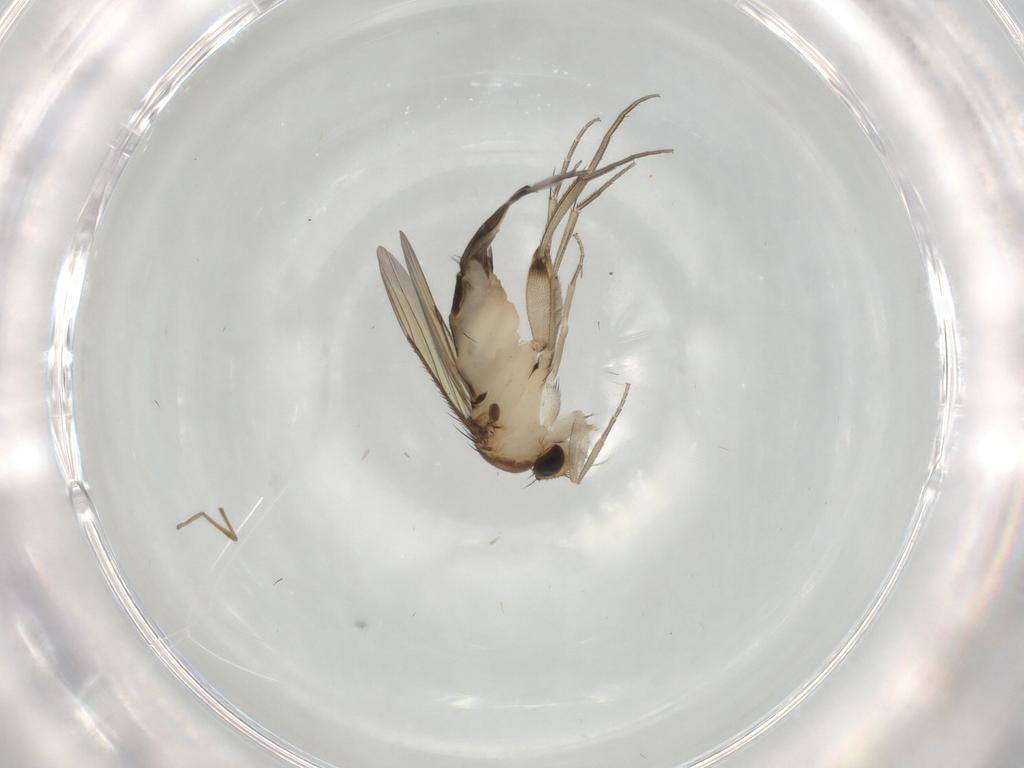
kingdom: Animalia
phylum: Arthropoda
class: Insecta
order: Diptera
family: Phoridae
